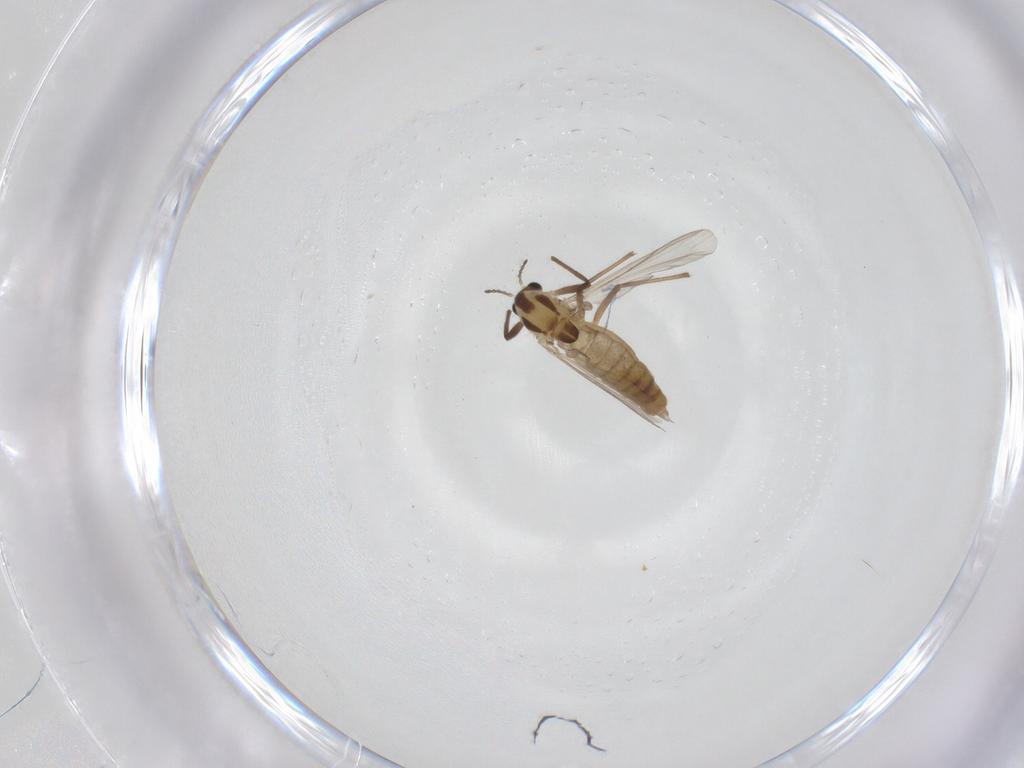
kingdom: Animalia
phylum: Arthropoda
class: Insecta
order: Diptera
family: Chironomidae
